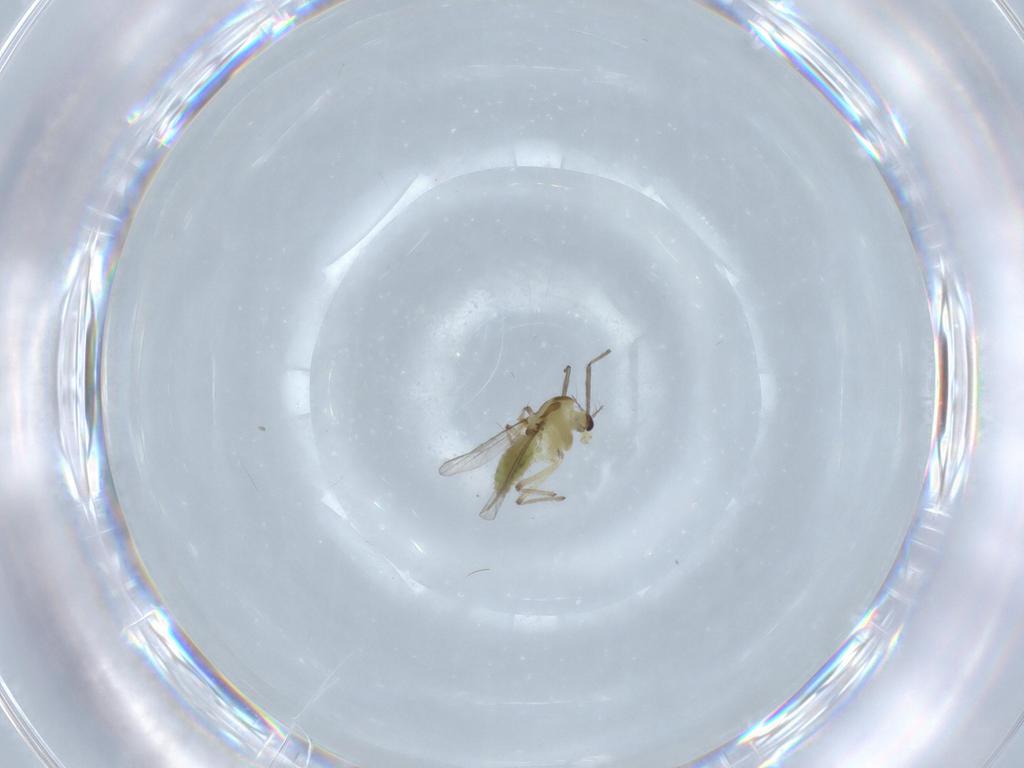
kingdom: Animalia
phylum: Arthropoda
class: Insecta
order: Diptera
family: Chironomidae
